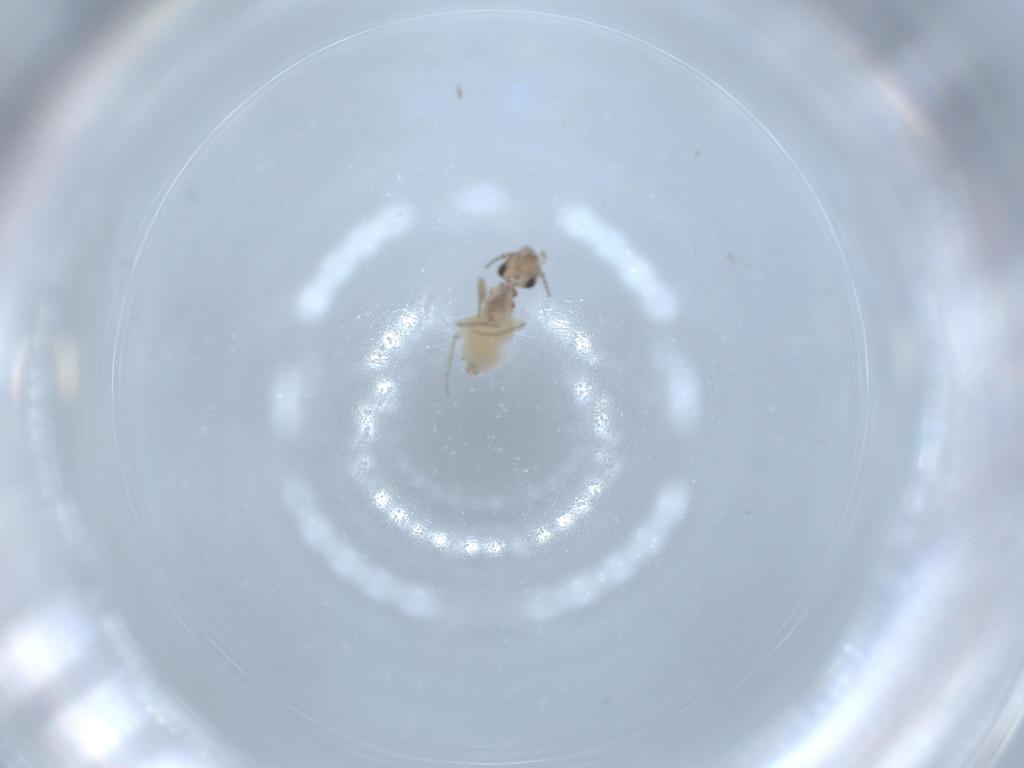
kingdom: Animalia
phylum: Arthropoda
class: Insecta
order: Psocodea
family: Lepidopsocidae
